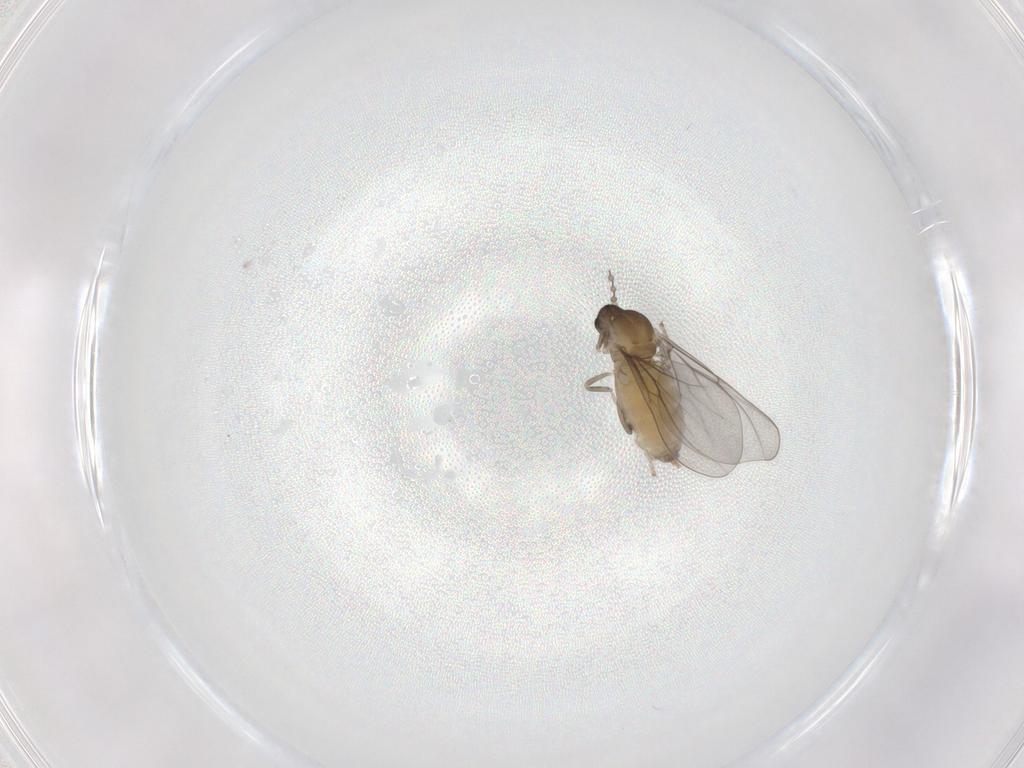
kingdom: Animalia
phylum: Arthropoda
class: Insecta
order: Diptera
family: Cecidomyiidae
